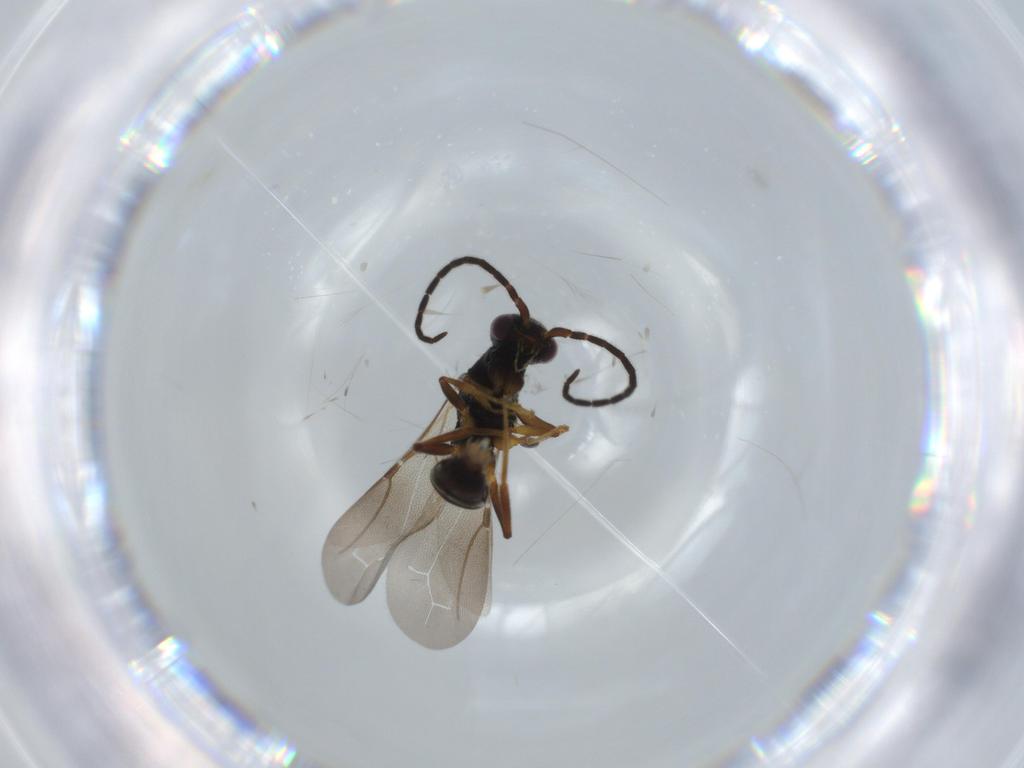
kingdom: Animalia
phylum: Arthropoda
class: Insecta
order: Hymenoptera
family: Bethylidae
